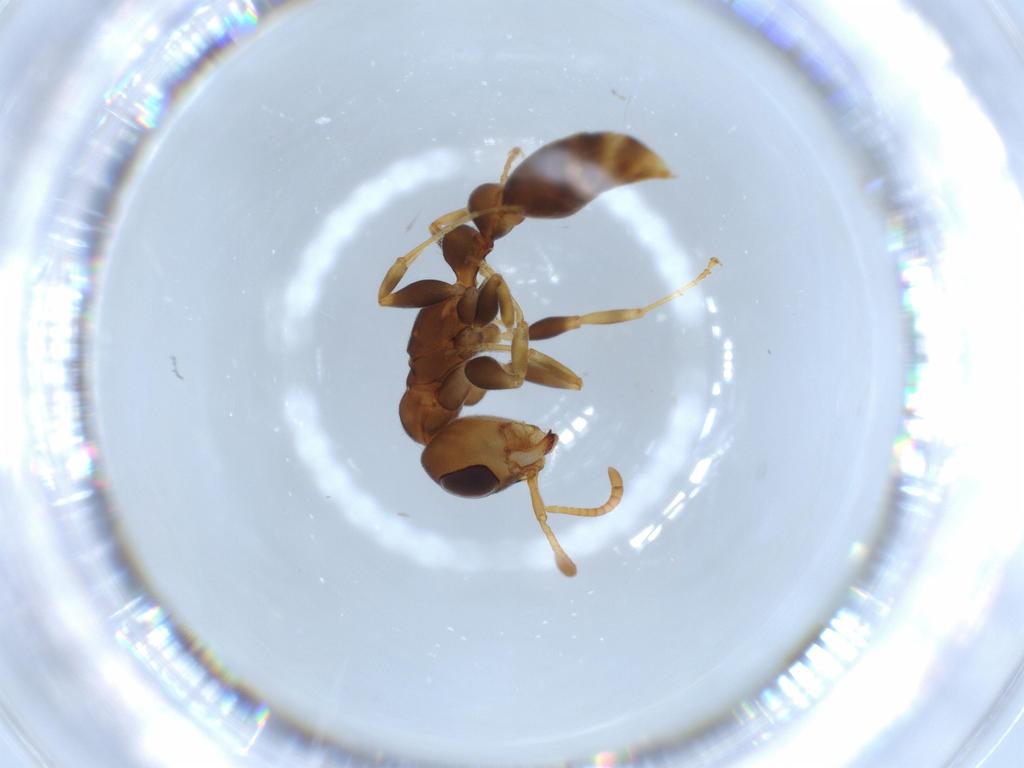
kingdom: Animalia
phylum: Arthropoda
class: Insecta
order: Hymenoptera
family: Formicidae
